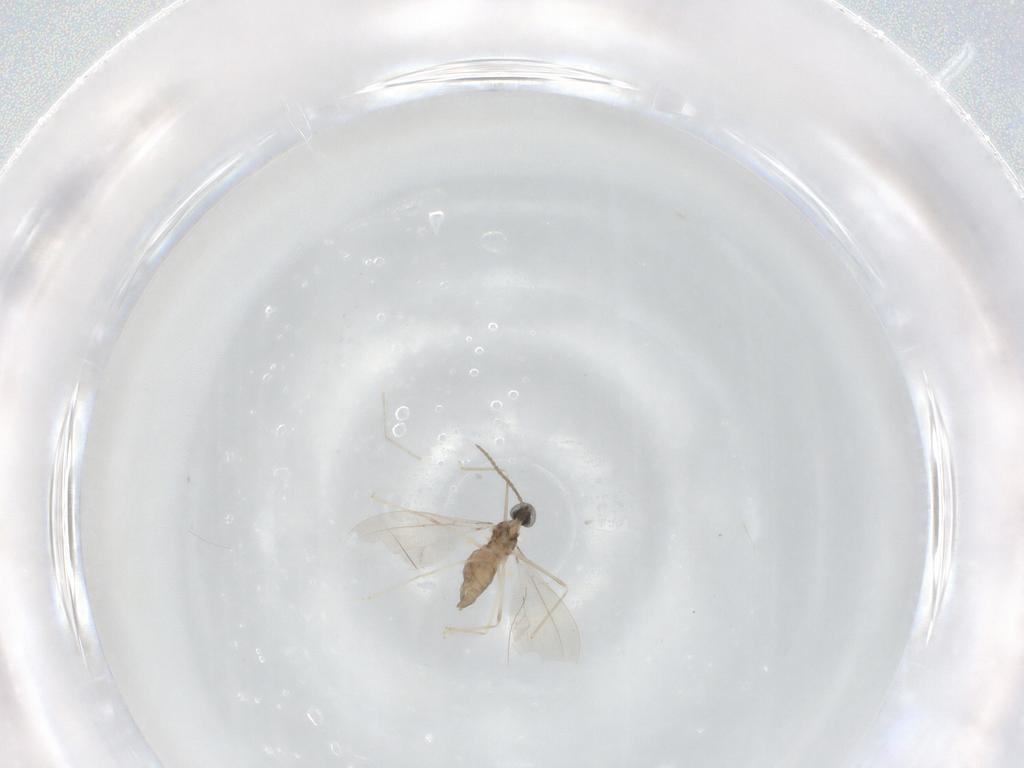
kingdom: Animalia
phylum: Arthropoda
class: Insecta
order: Diptera
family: Cecidomyiidae
